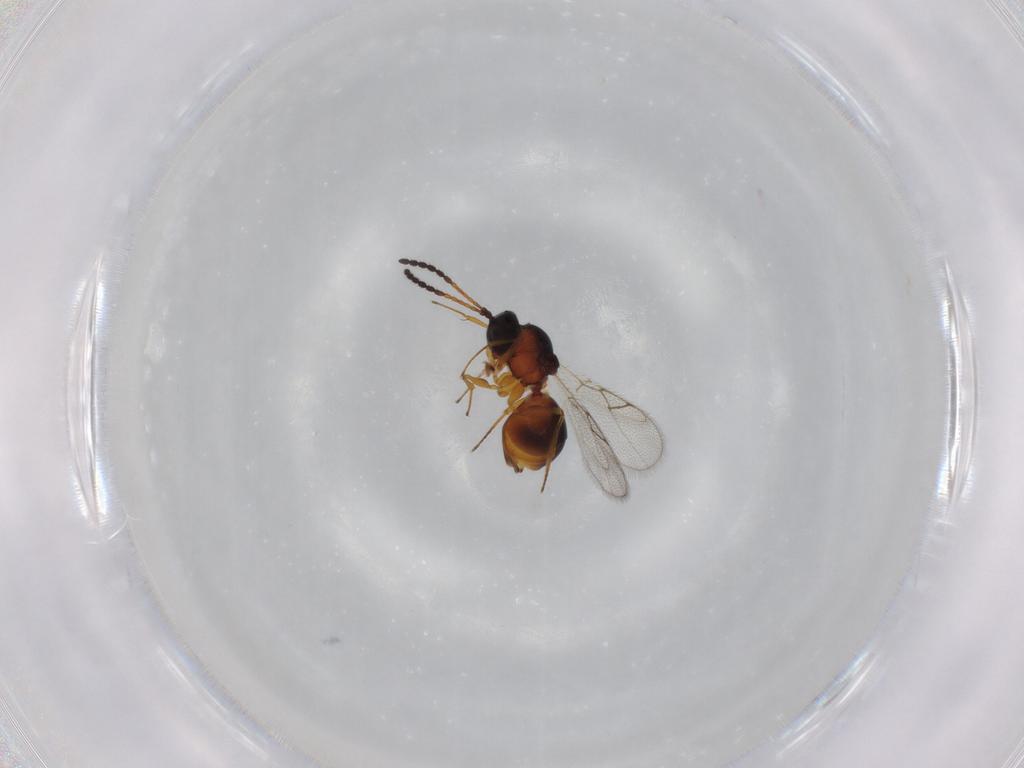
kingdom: Animalia
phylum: Arthropoda
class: Insecta
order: Hymenoptera
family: Figitidae
